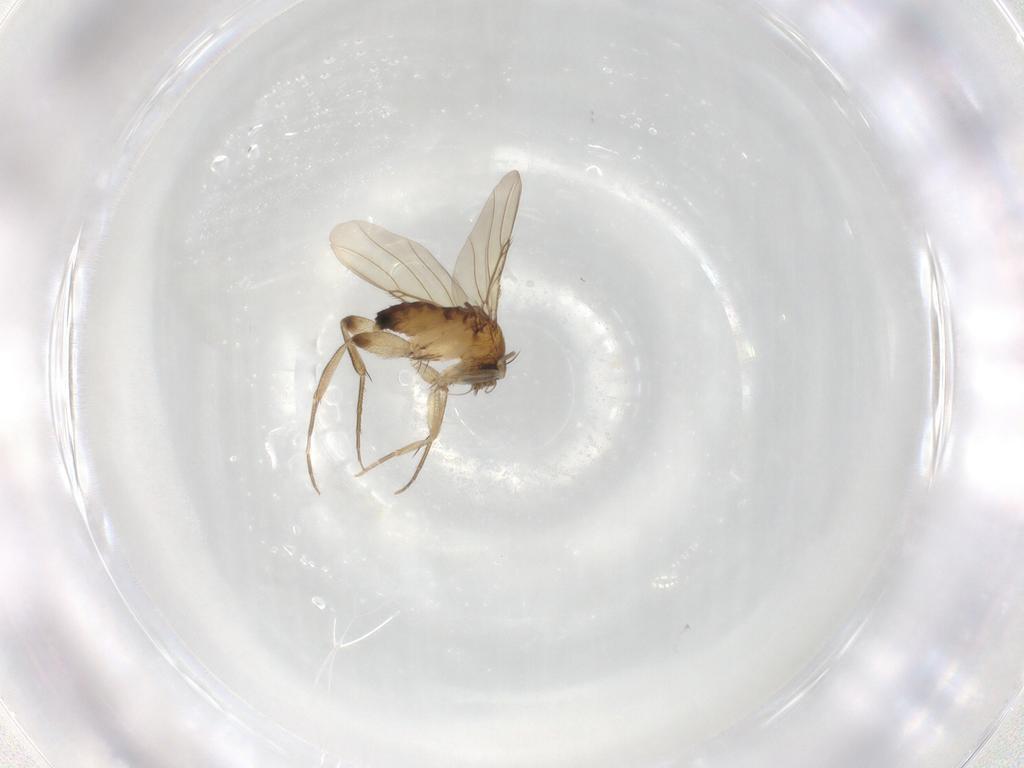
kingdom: Animalia
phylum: Arthropoda
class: Insecta
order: Diptera
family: Phoridae
